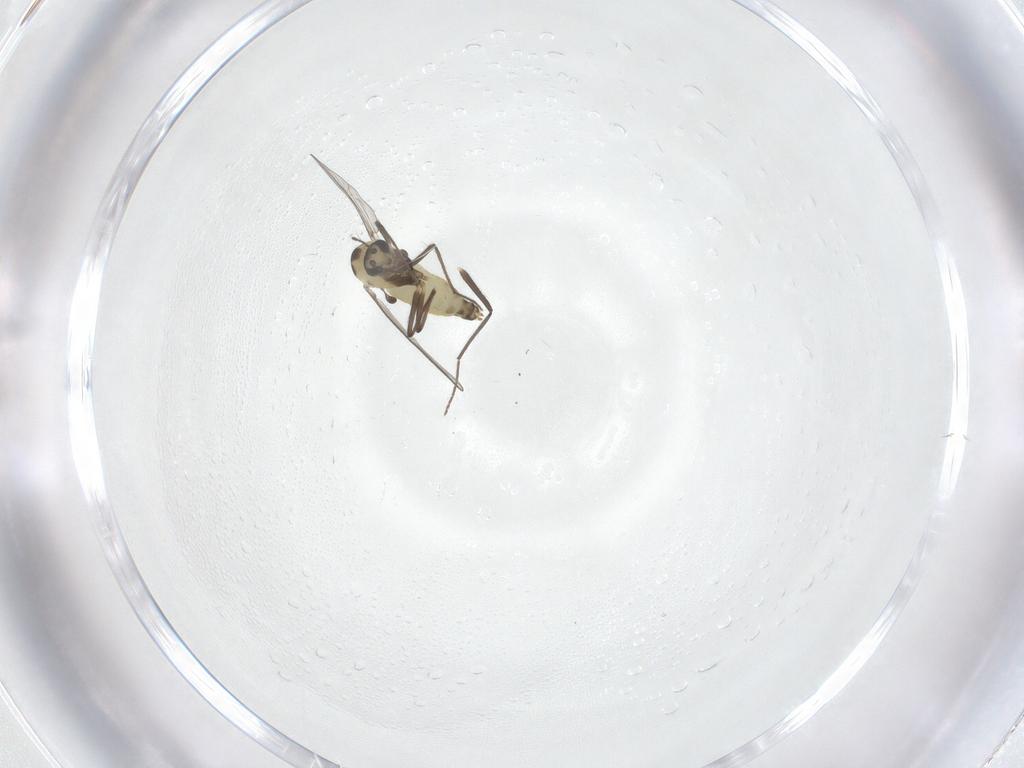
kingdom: Animalia
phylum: Arthropoda
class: Insecta
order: Diptera
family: Chironomidae
